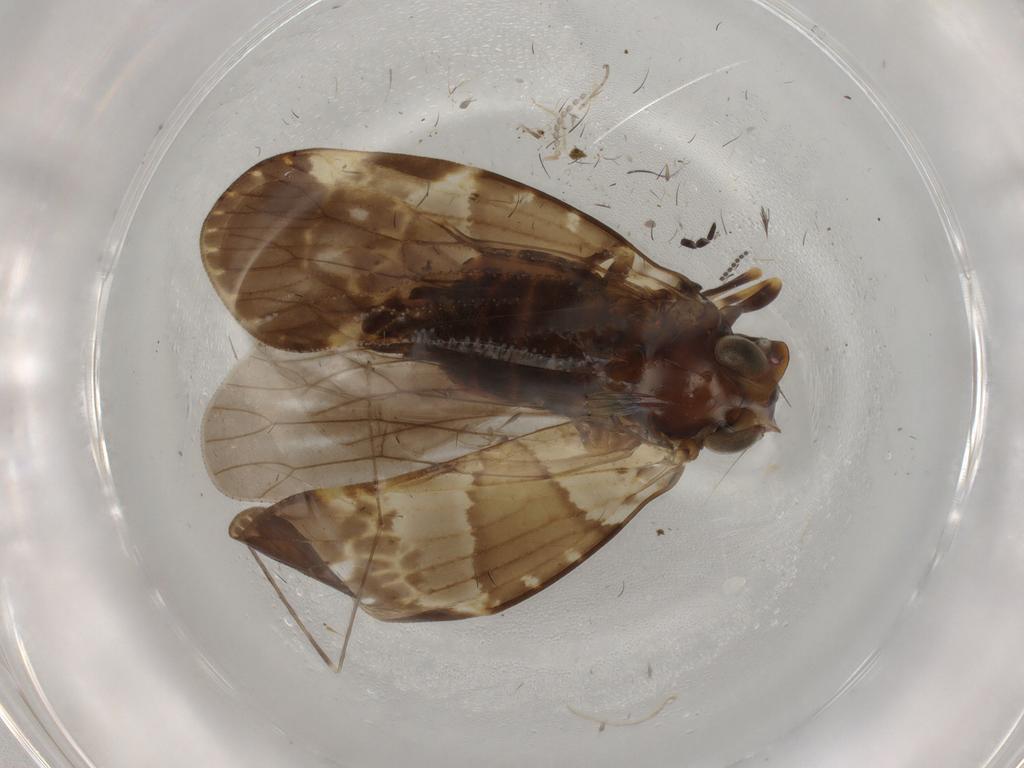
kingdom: Animalia
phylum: Arthropoda
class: Insecta
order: Hemiptera
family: Cixiidae
